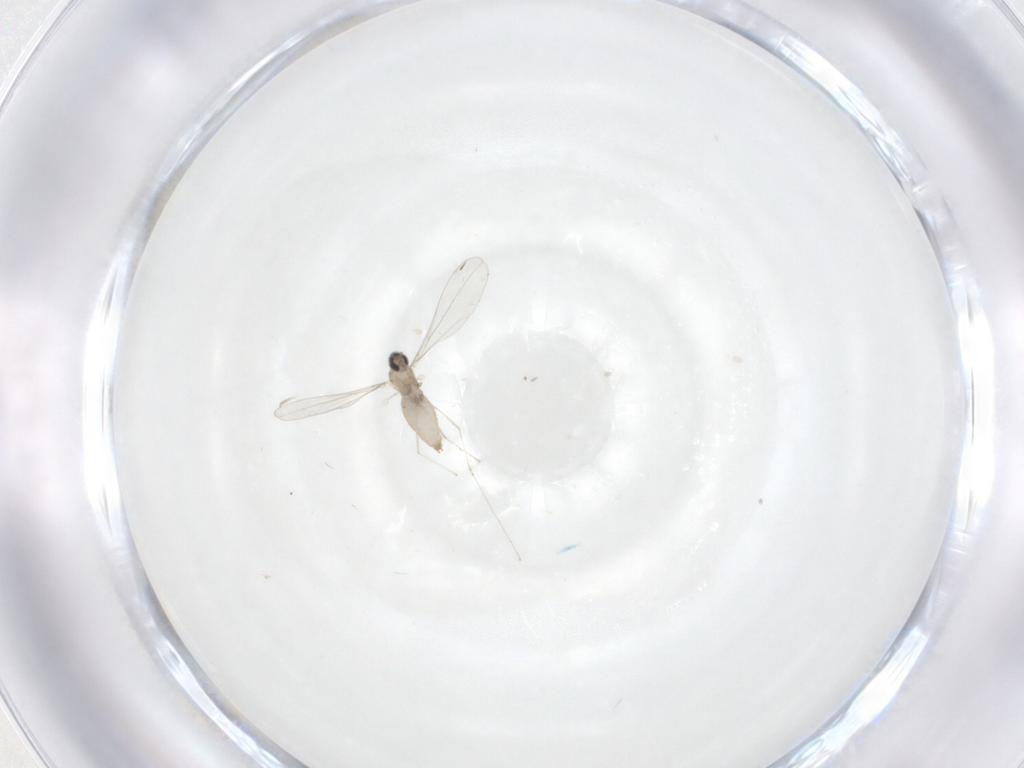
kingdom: Animalia
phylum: Arthropoda
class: Insecta
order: Diptera
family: Cecidomyiidae
